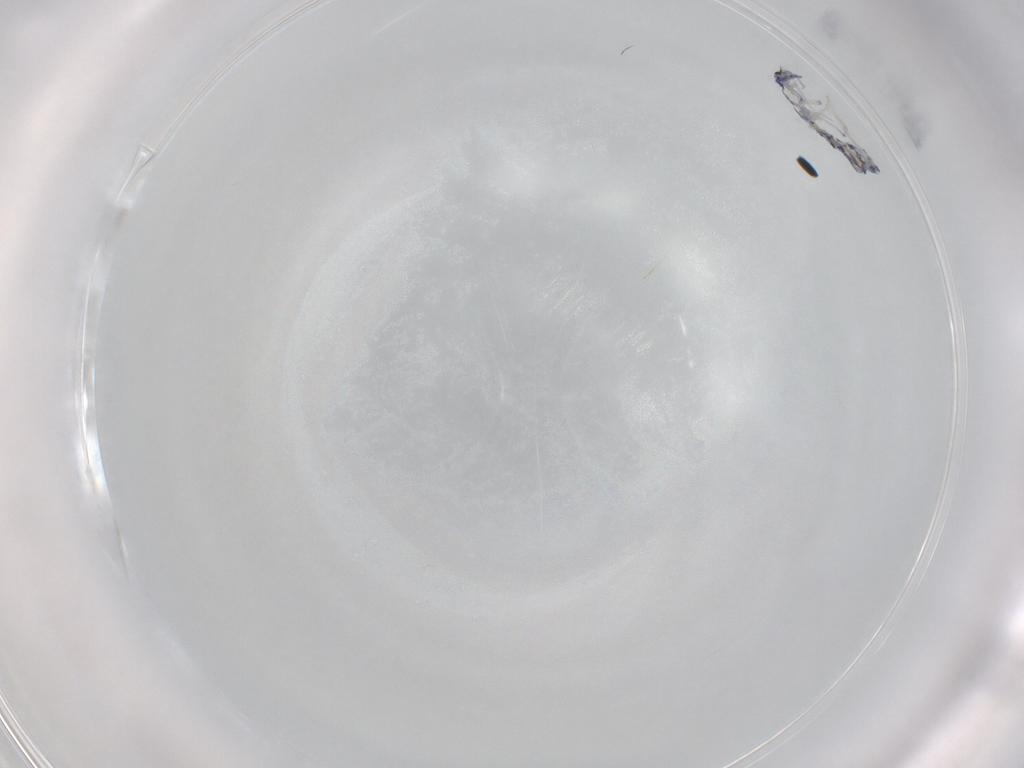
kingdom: Animalia
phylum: Arthropoda
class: Collembola
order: Entomobryomorpha
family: Entomobryidae
